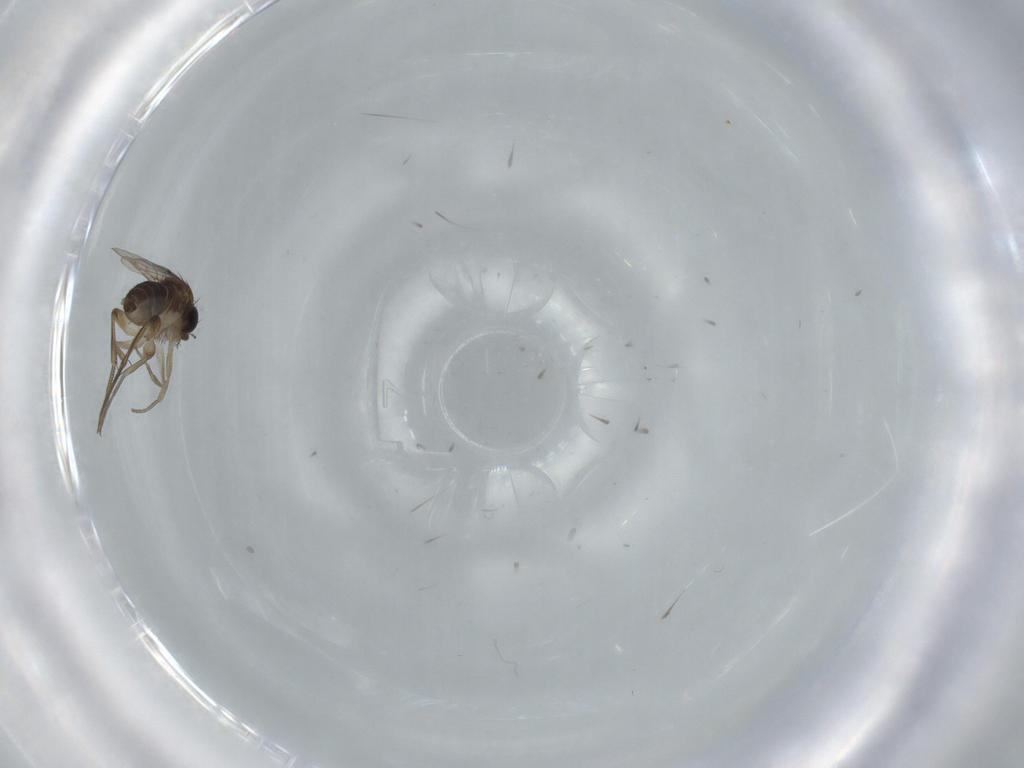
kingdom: Animalia
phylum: Arthropoda
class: Insecta
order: Diptera
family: Phoridae
